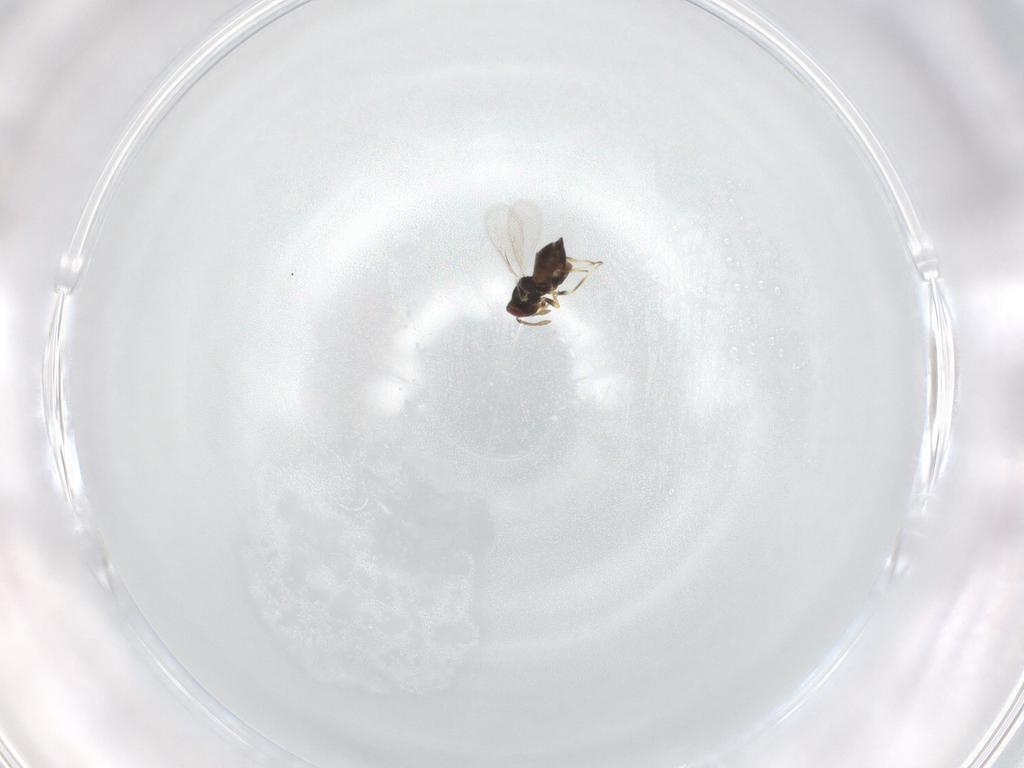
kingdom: Animalia
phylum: Arthropoda
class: Insecta
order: Hymenoptera
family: Eulophidae
